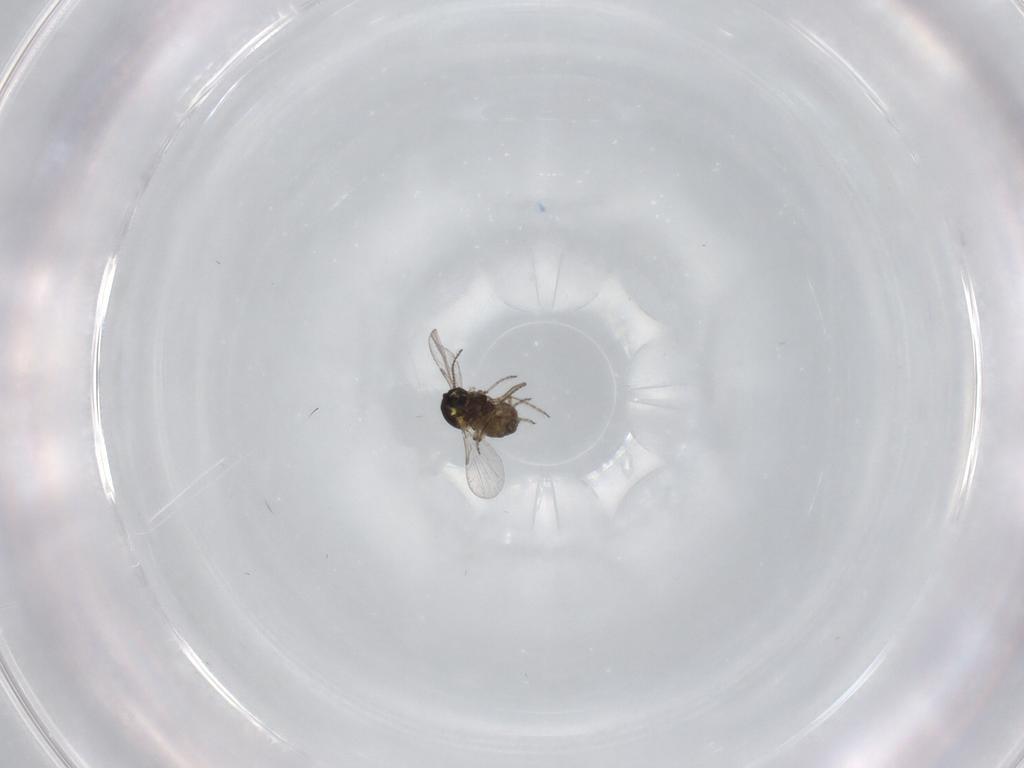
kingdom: Animalia
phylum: Arthropoda
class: Insecta
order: Diptera
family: Ceratopogonidae
